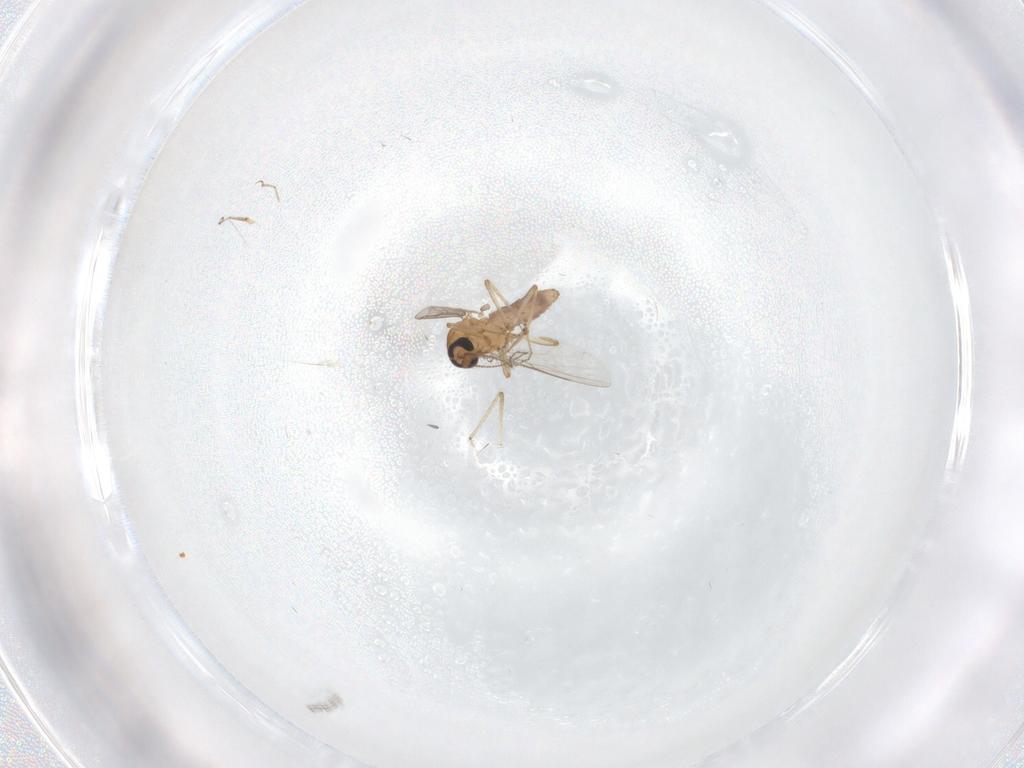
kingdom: Animalia
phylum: Arthropoda
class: Insecta
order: Diptera
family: Ceratopogonidae
